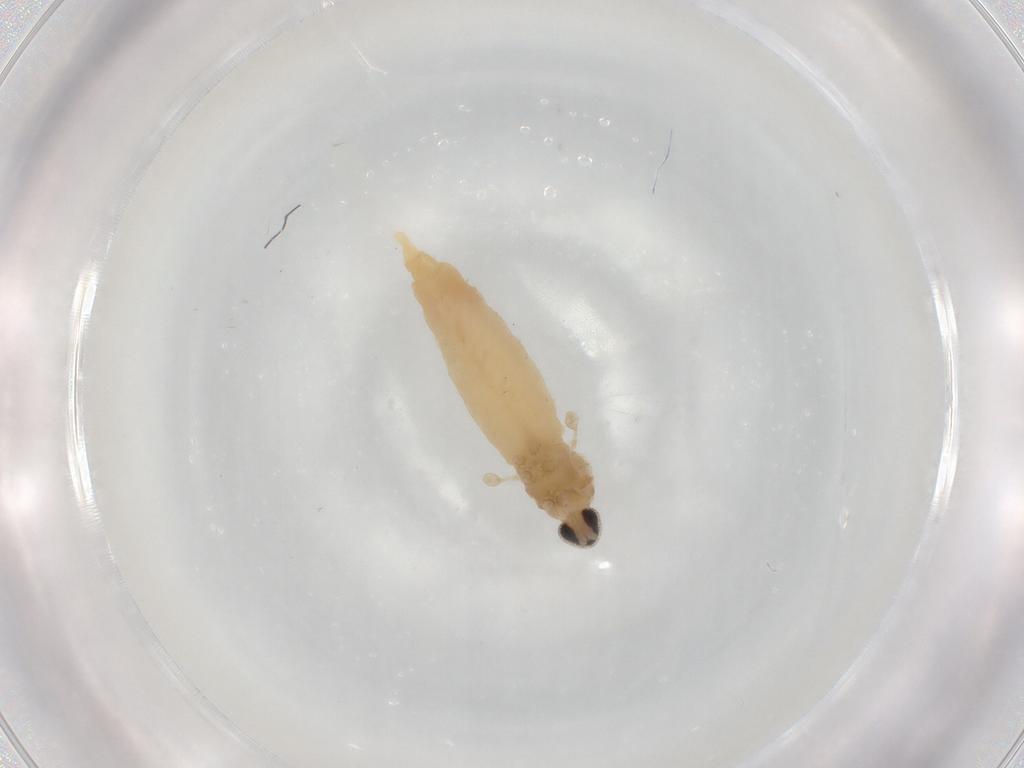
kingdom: Animalia
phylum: Arthropoda
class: Insecta
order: Diptera
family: Cecidomyiidae
